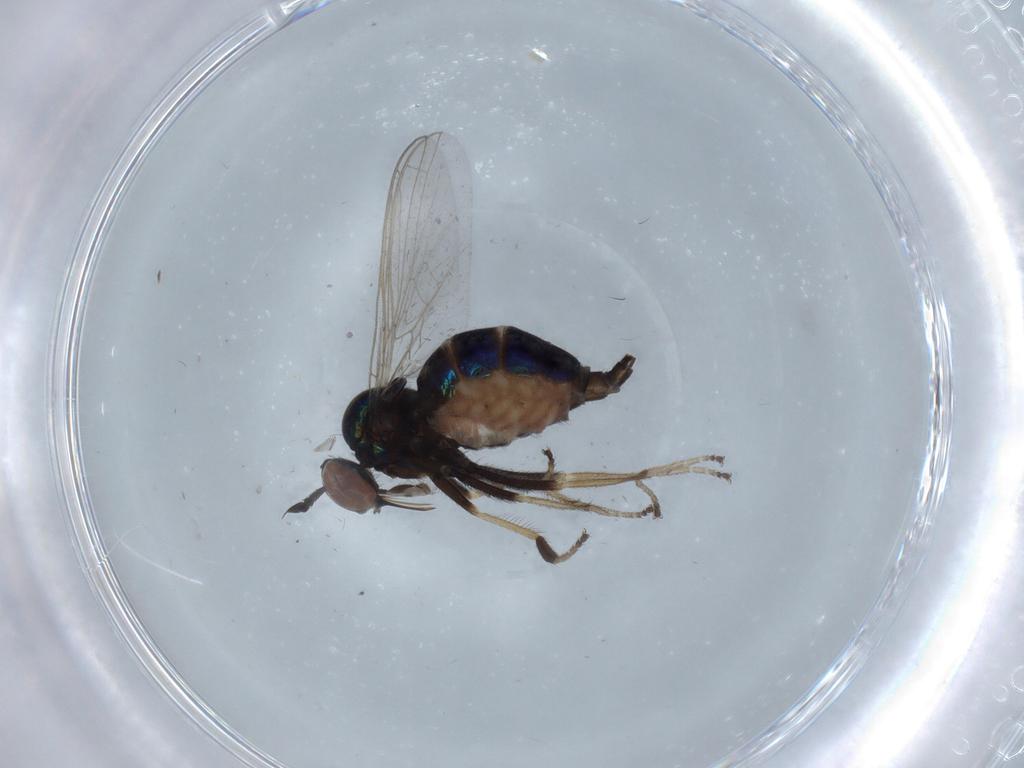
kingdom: Animalia
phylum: Arthropoda
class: Insecta
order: Diptera
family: Empididae
